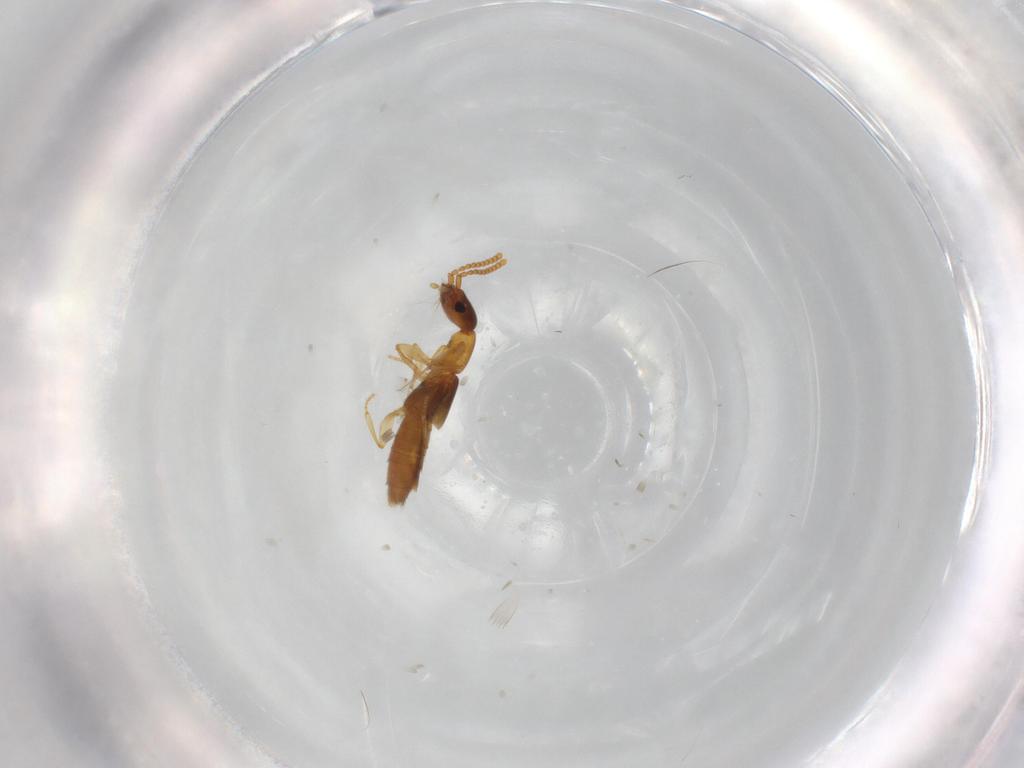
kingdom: Animalia
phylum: Arthropoda
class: Insecta
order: Coleoptera
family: Staphylinidae
